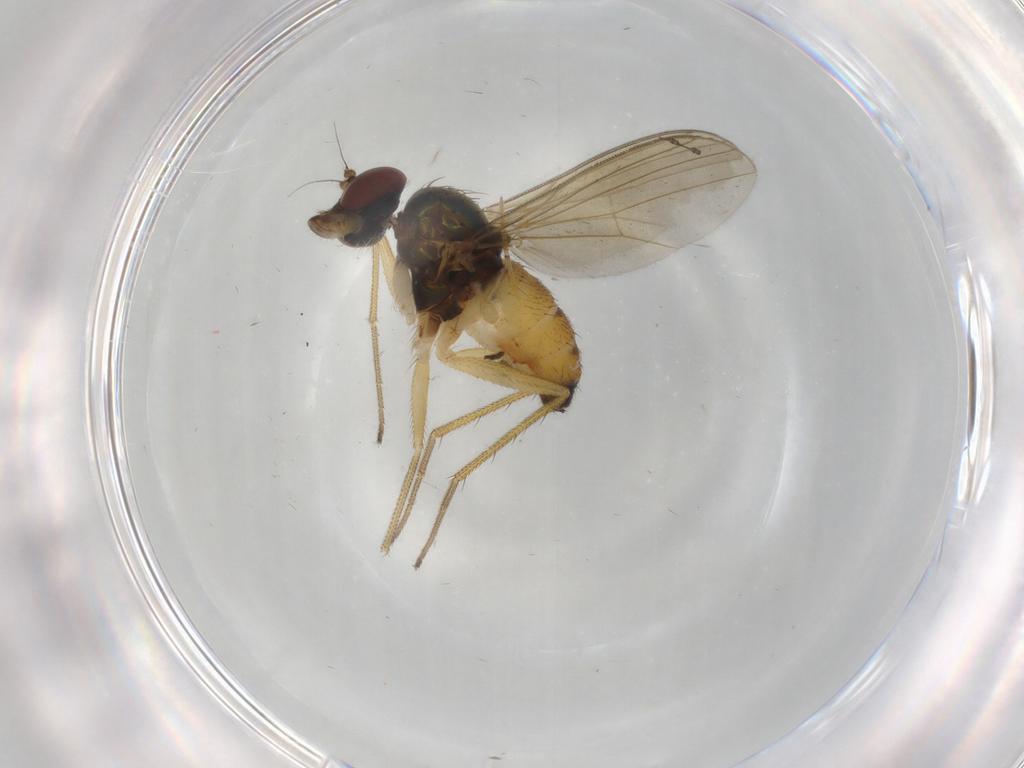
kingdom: Animalia
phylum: Arthropoda
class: Insecta
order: Diptera
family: Dolichopodidae
